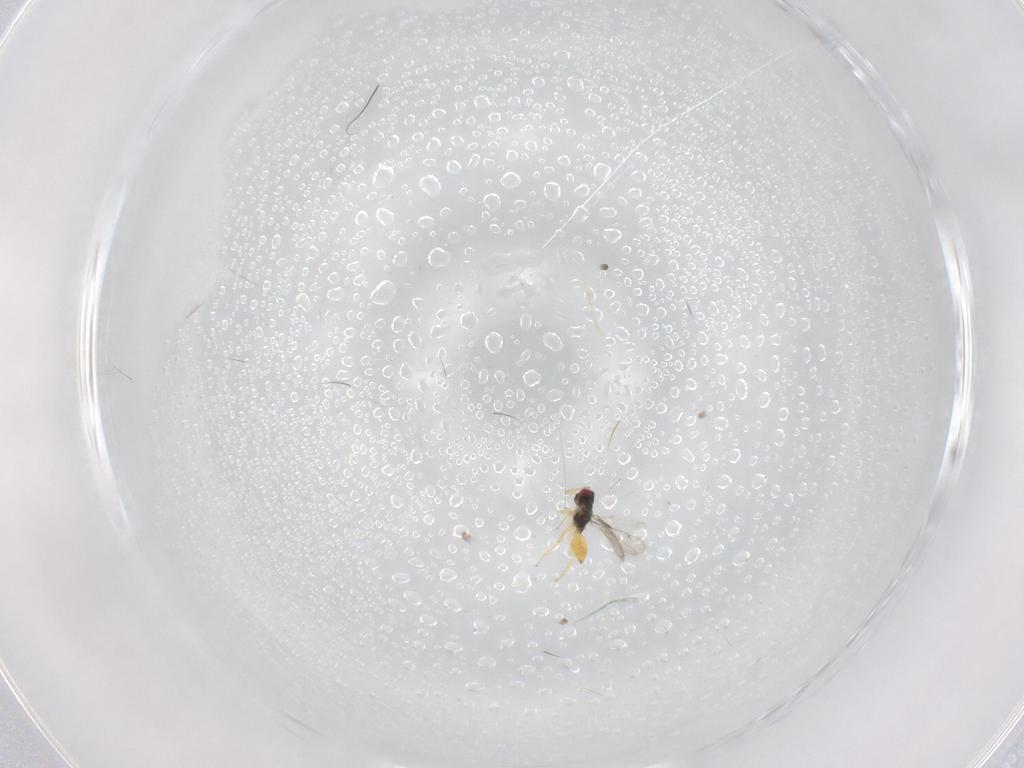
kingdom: Animalia
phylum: Arthropoda
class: Insecta
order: Hymenoptera
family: Eulophidae
